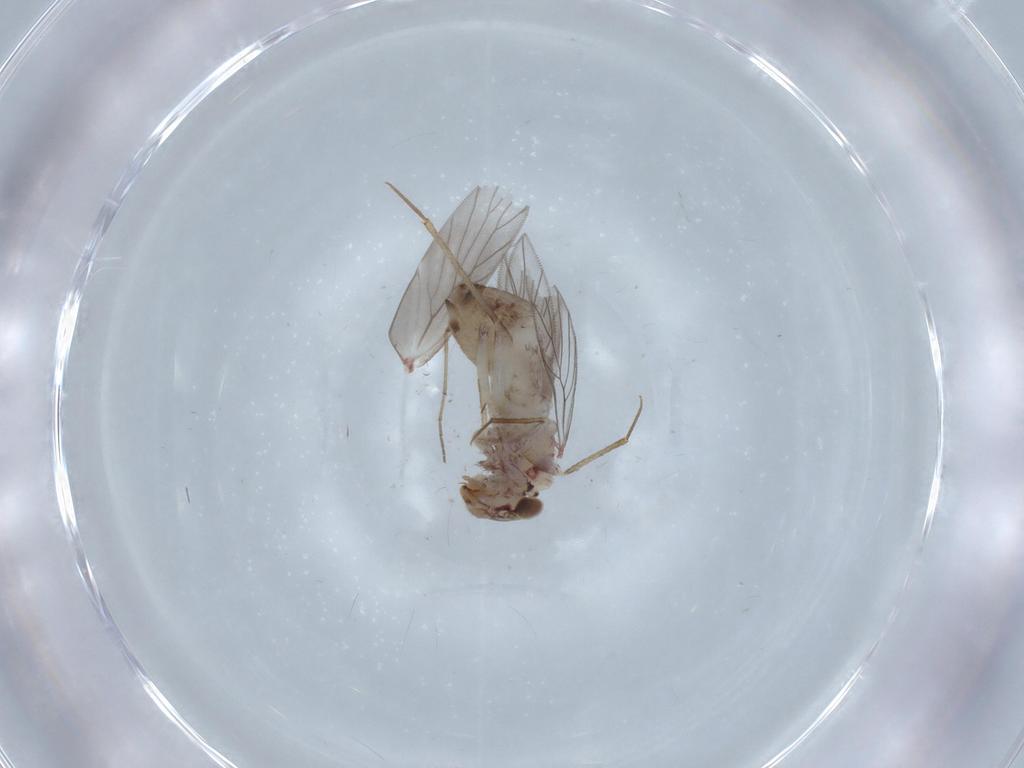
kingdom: Animalia
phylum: Arthropoda
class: Insecta
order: Psocodea
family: Lepidopsocidae
